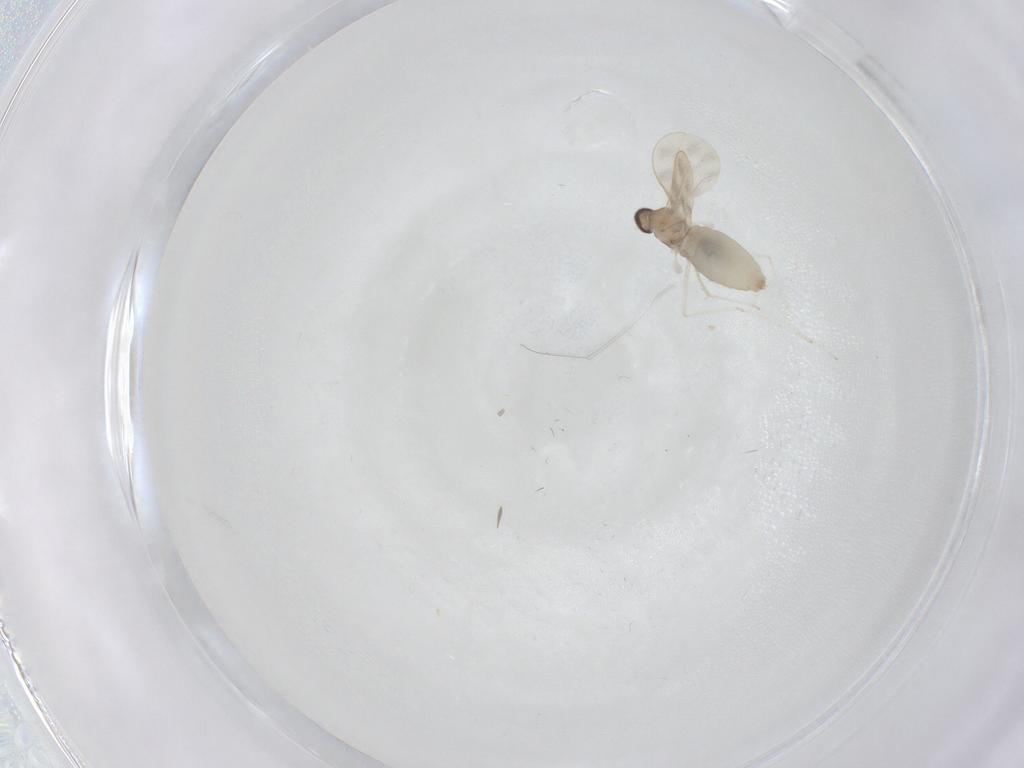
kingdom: Animalia
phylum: Arthropoda
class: Insecta
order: Diptera
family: Cecidomyiidae
